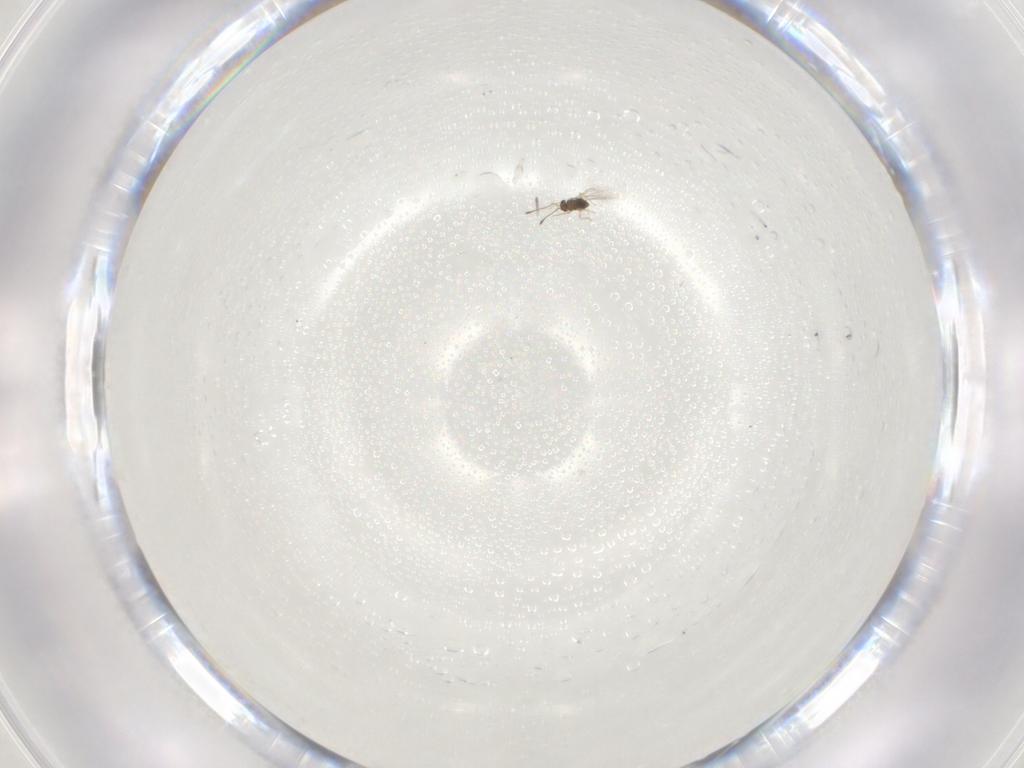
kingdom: Animalia
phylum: Arthropoda
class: Insecta
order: Hymenoptera
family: Mymaridae
